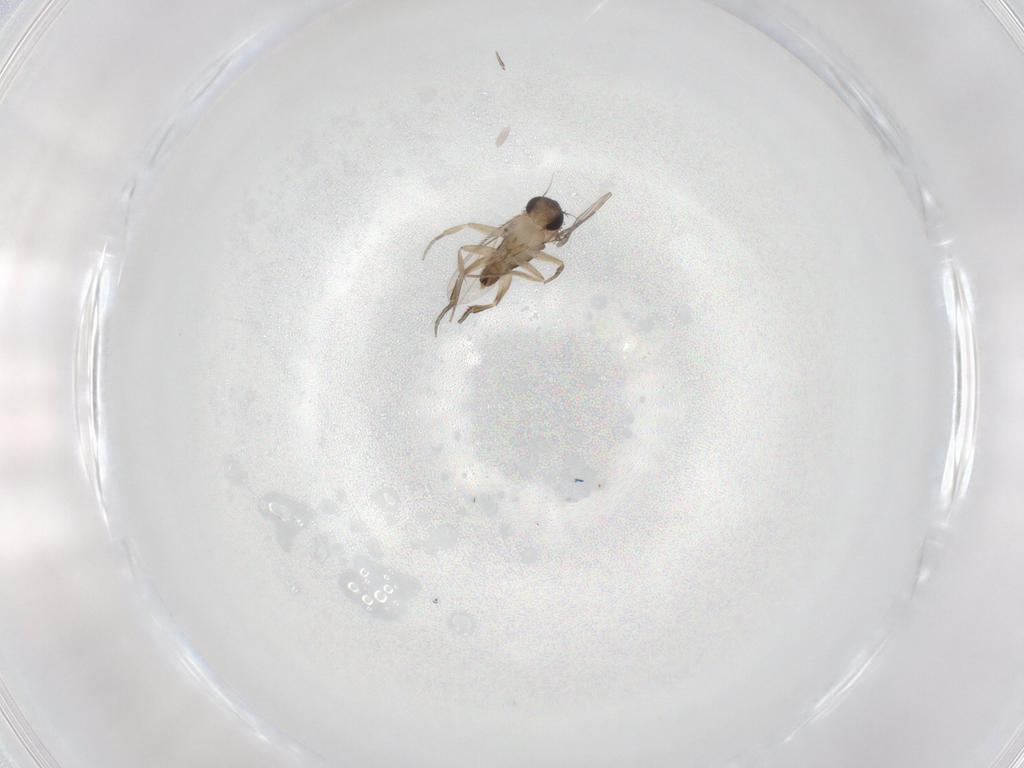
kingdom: Animalia
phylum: Arthropoda
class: Insecta
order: Diptera
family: Phoridae
